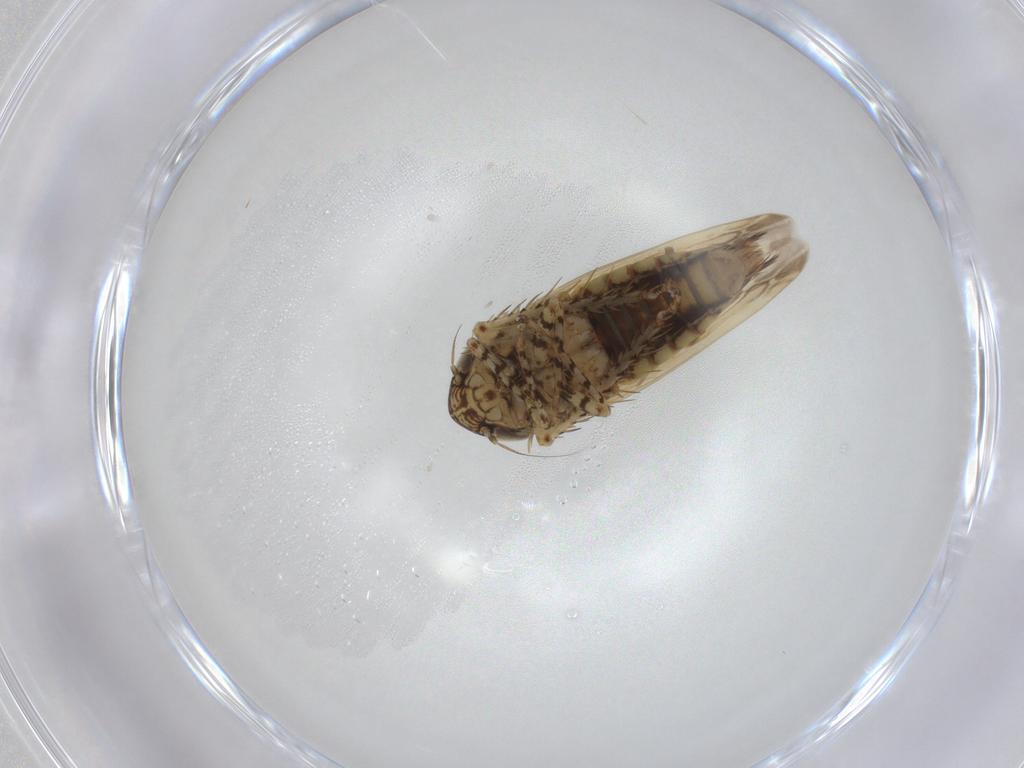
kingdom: Animalia
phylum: Arthropoda
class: Insecta
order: Hemiptera
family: Cicadellidae
